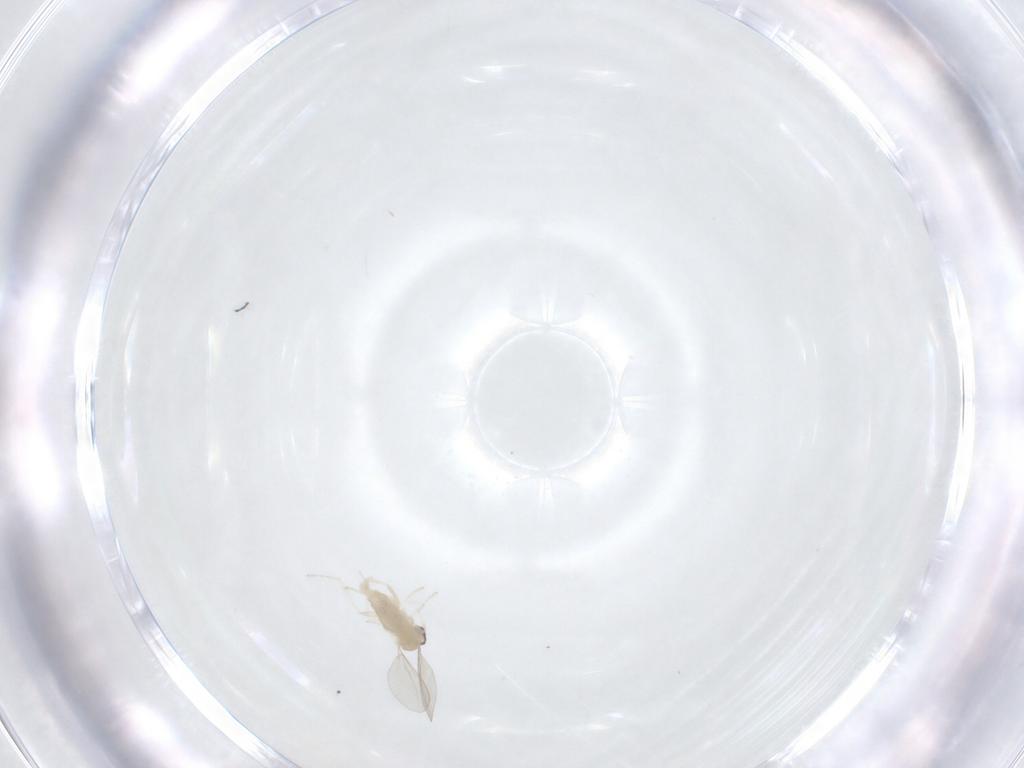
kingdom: Animalia
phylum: Arthropoda
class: Insecta
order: Diptera
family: Cecidomyiidae
